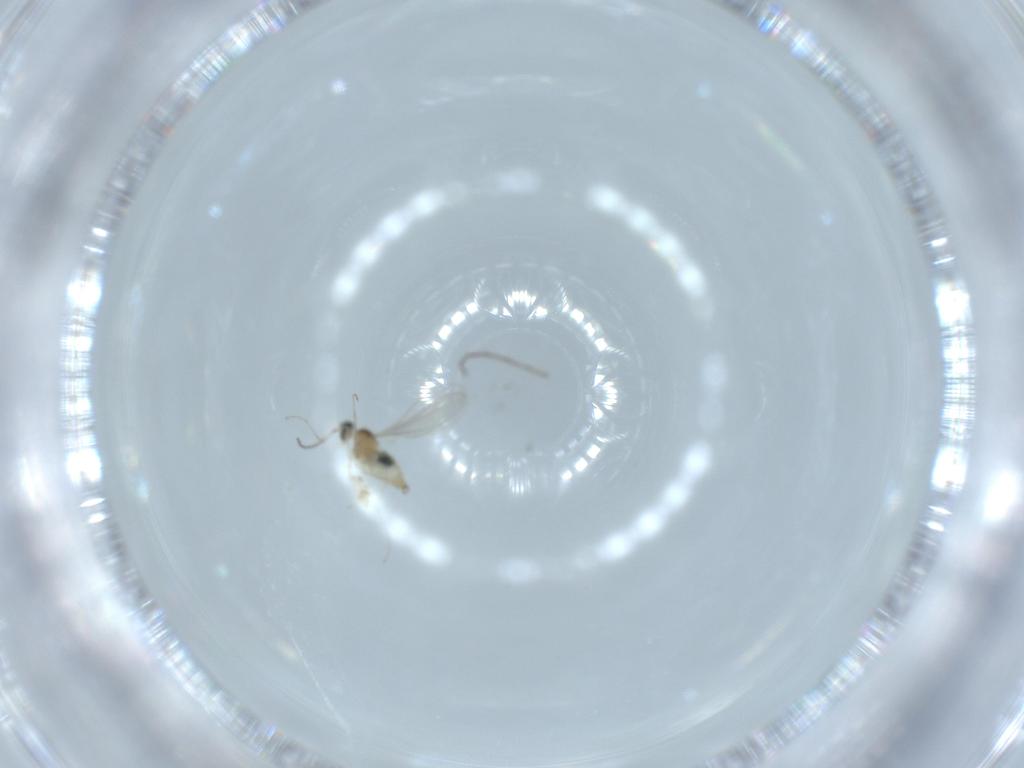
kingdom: Animalia
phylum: Arthropoda
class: Insecta
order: Diptera
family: Cecidomyiidae
